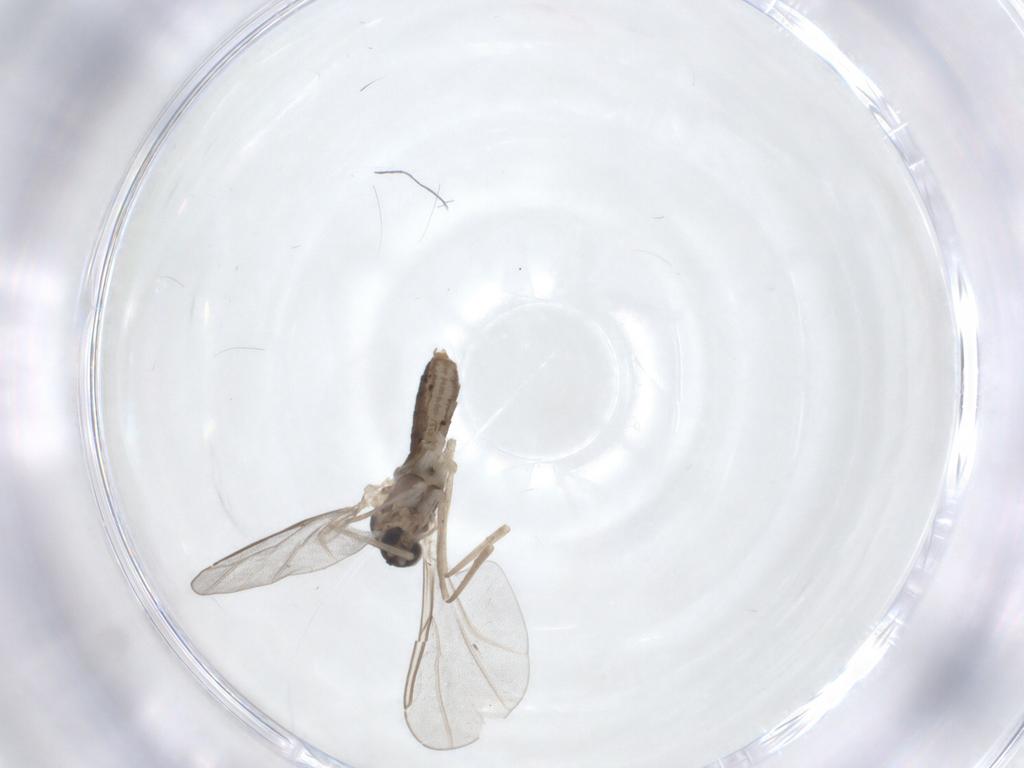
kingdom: Animalia
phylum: Arthropoda
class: Insecta
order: Diptera
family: Cecidomyiidae
